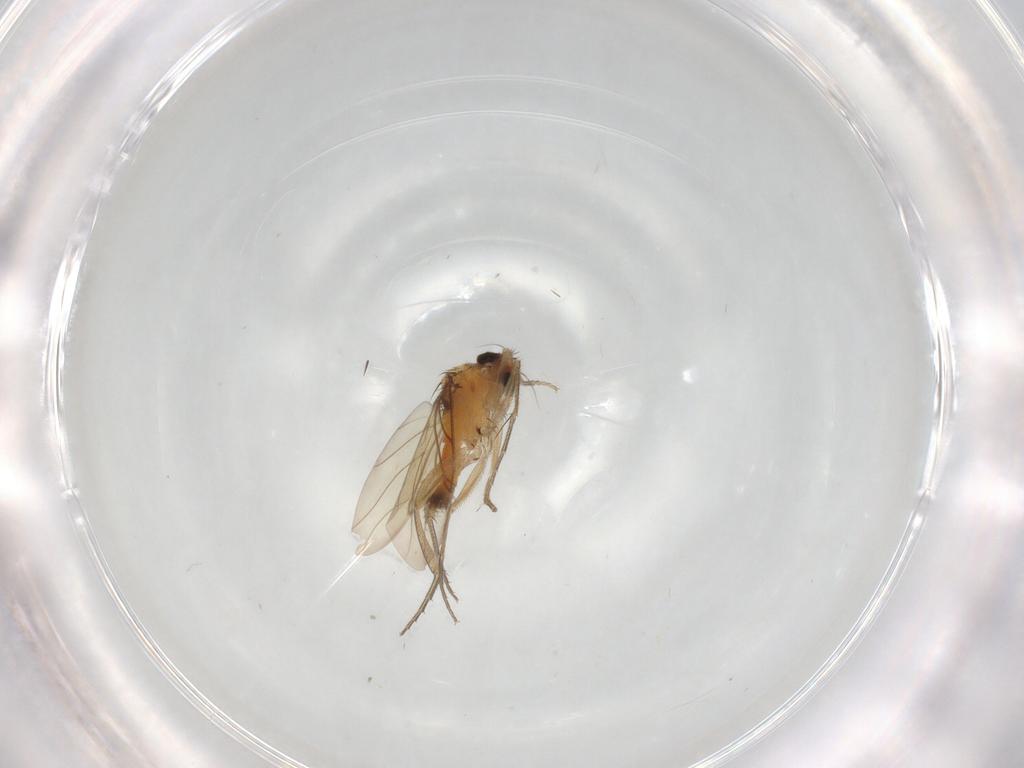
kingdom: Animalia
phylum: Arthropoda
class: Insecta
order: Diptera
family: Phoridae
